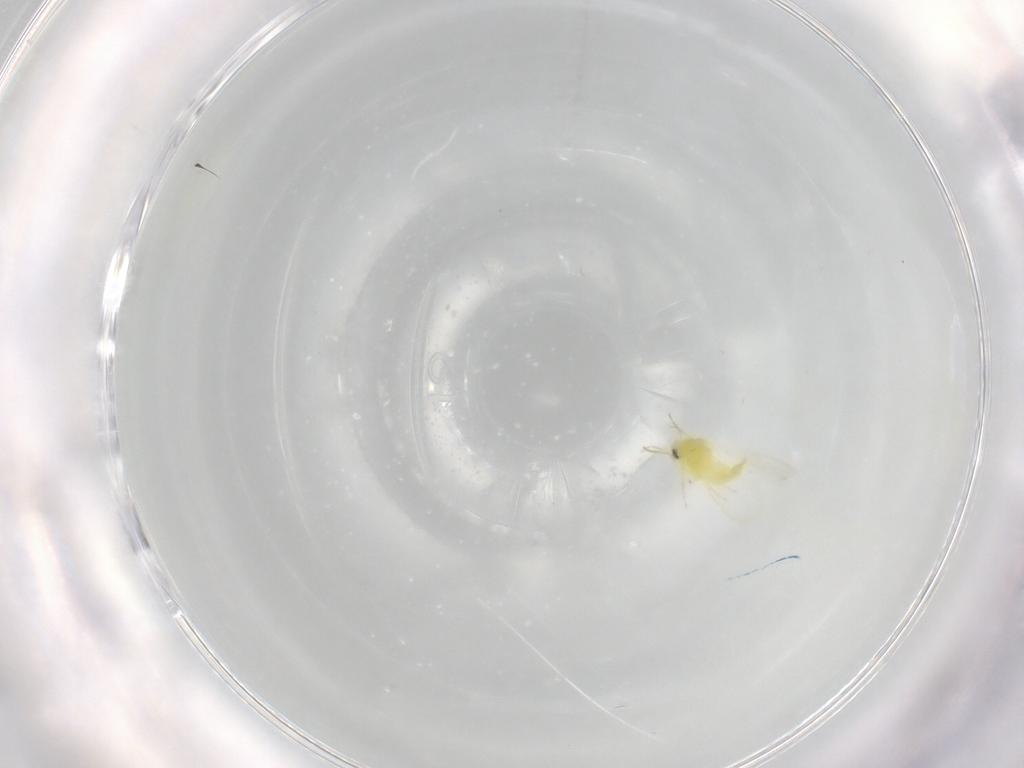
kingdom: Animalia
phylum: Arthropoda
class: Insecta
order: Hemiptera
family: Aleyrodidae
